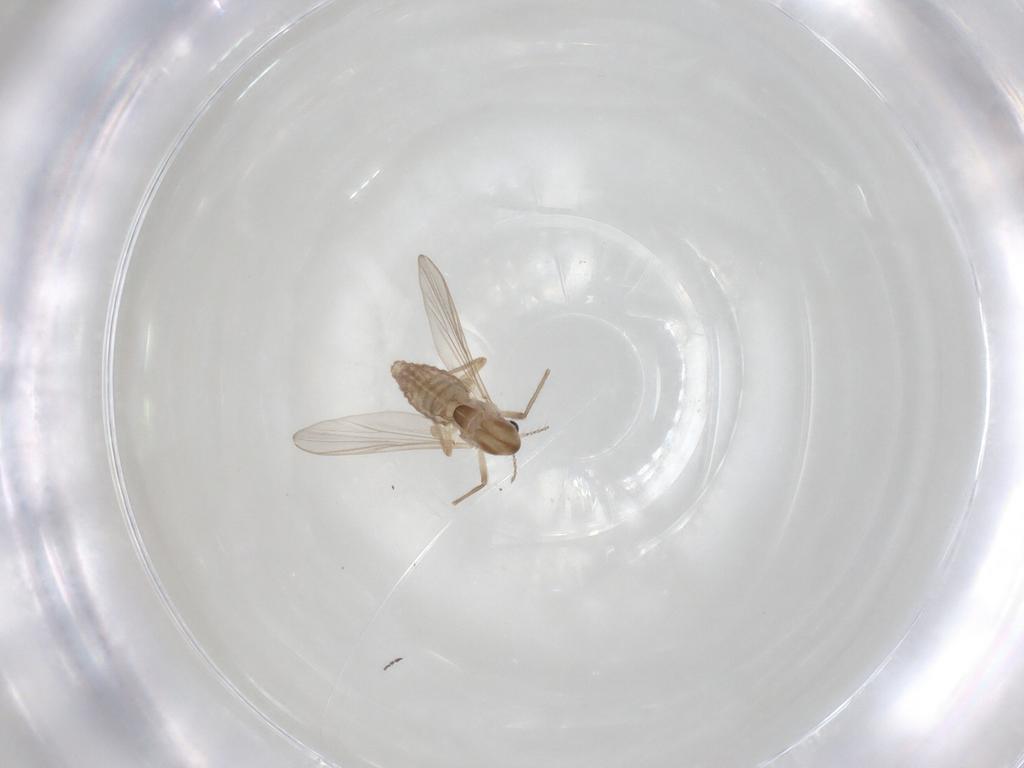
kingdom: Animalia
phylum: Arthropoda
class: Insecta
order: Diptera
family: Chironomidae
